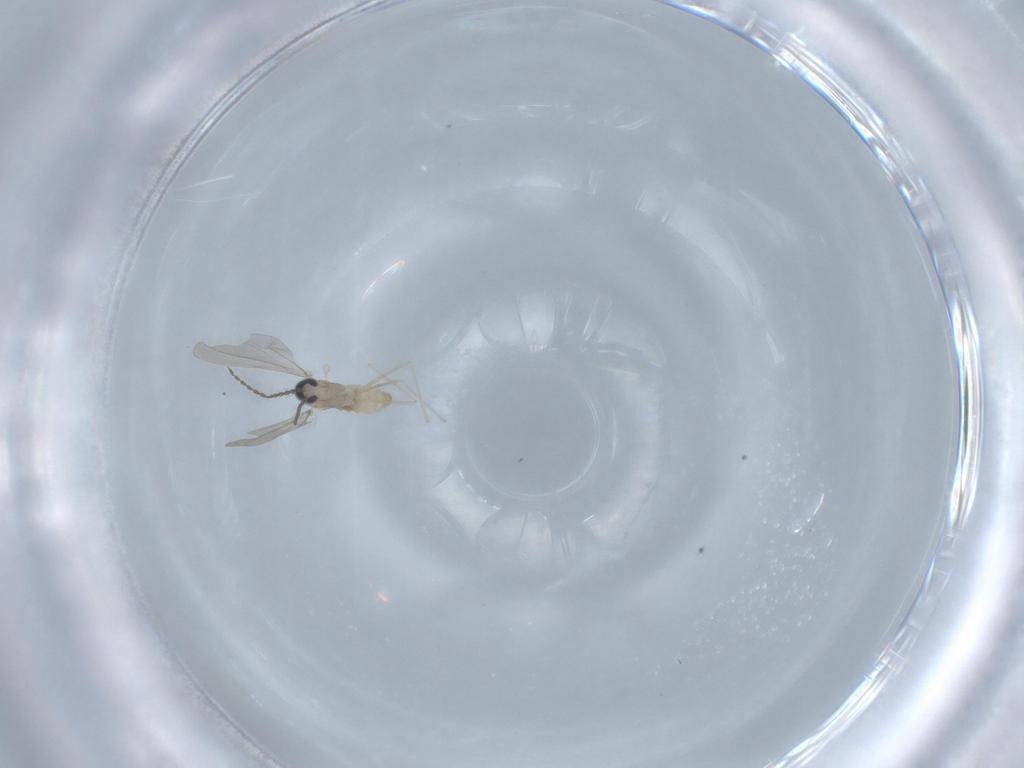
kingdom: Animalia
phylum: Arthropoda
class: Insecta
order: Diptera
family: Cecidomyiidae
